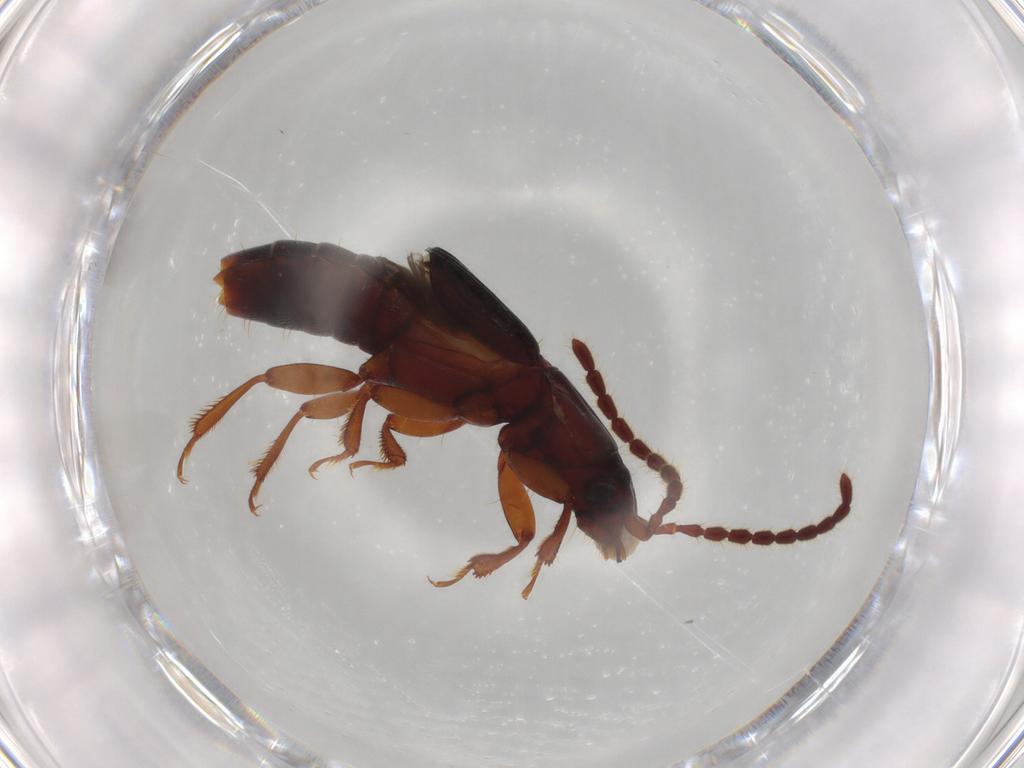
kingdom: Animalia
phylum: Arthropoda
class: Insecta
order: Coleoptera
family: Staphylinidae
